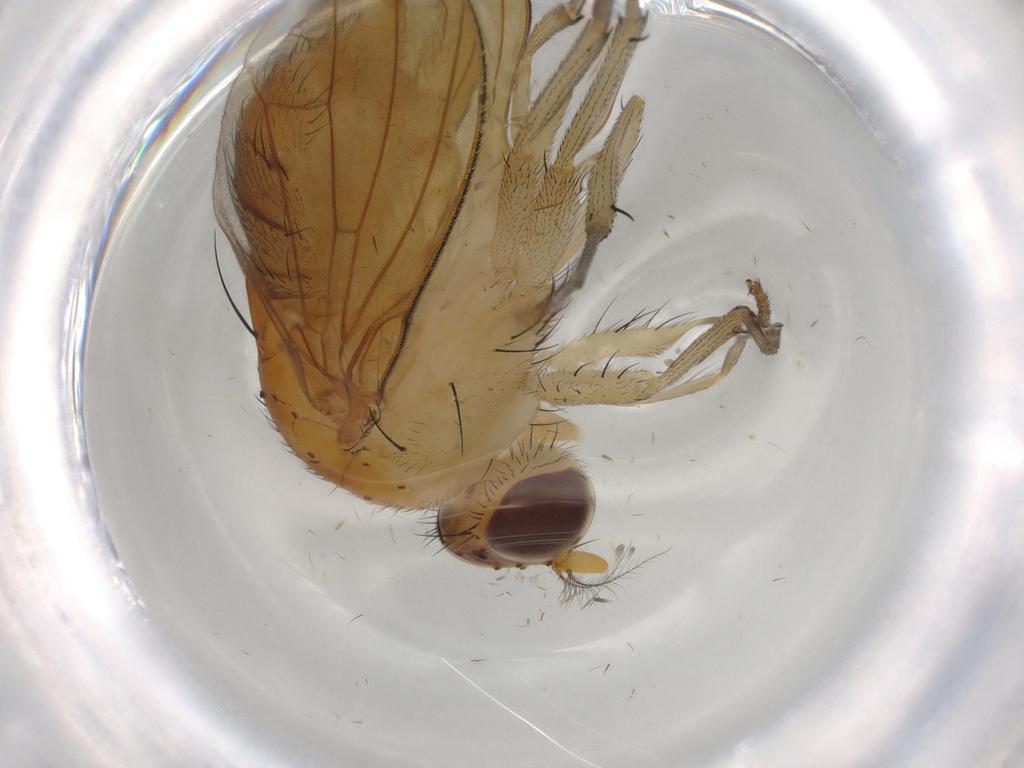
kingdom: Animalia
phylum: Arthropoda
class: Insecta
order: Diptera
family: Cecidomyiidae
